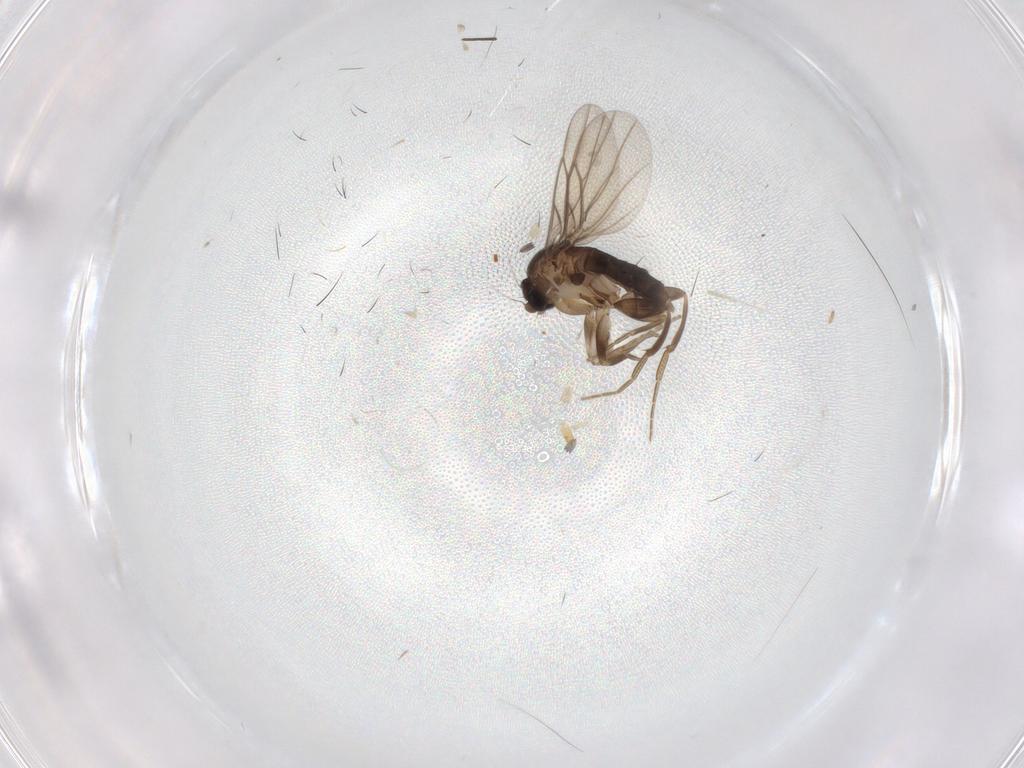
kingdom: Animalia
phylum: Arthropoda
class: Insecta
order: Diptera
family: Phoridae
